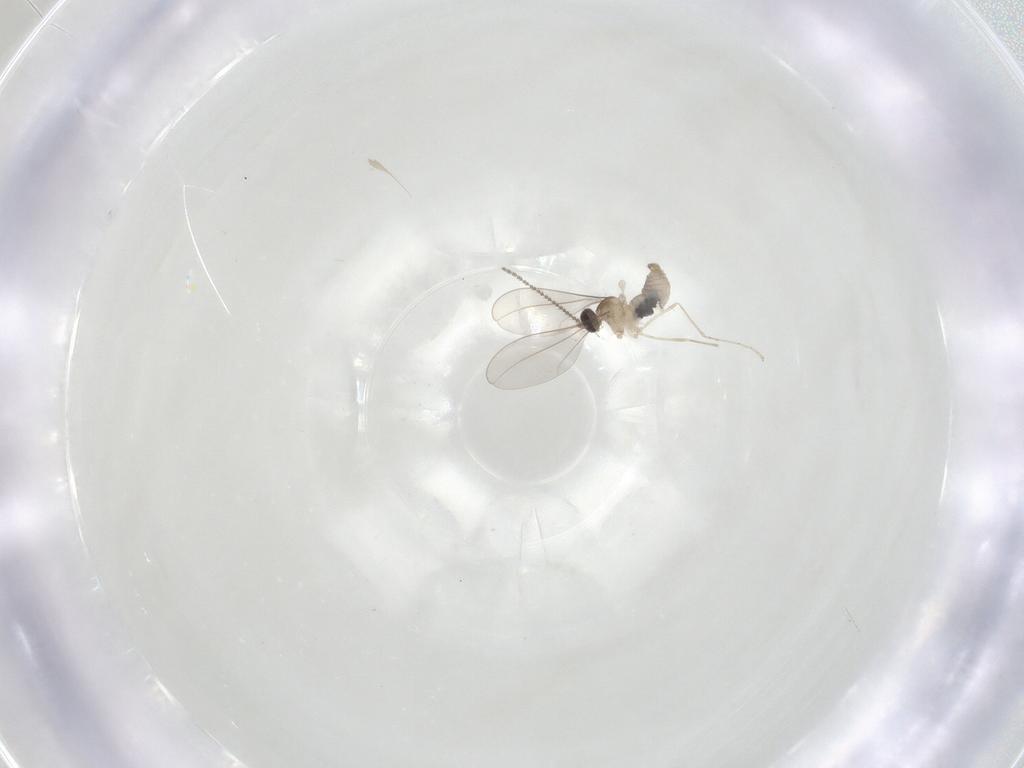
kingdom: Animalia
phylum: Arthropoda
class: Insecta
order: Diptera
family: Cecidomyiidae
